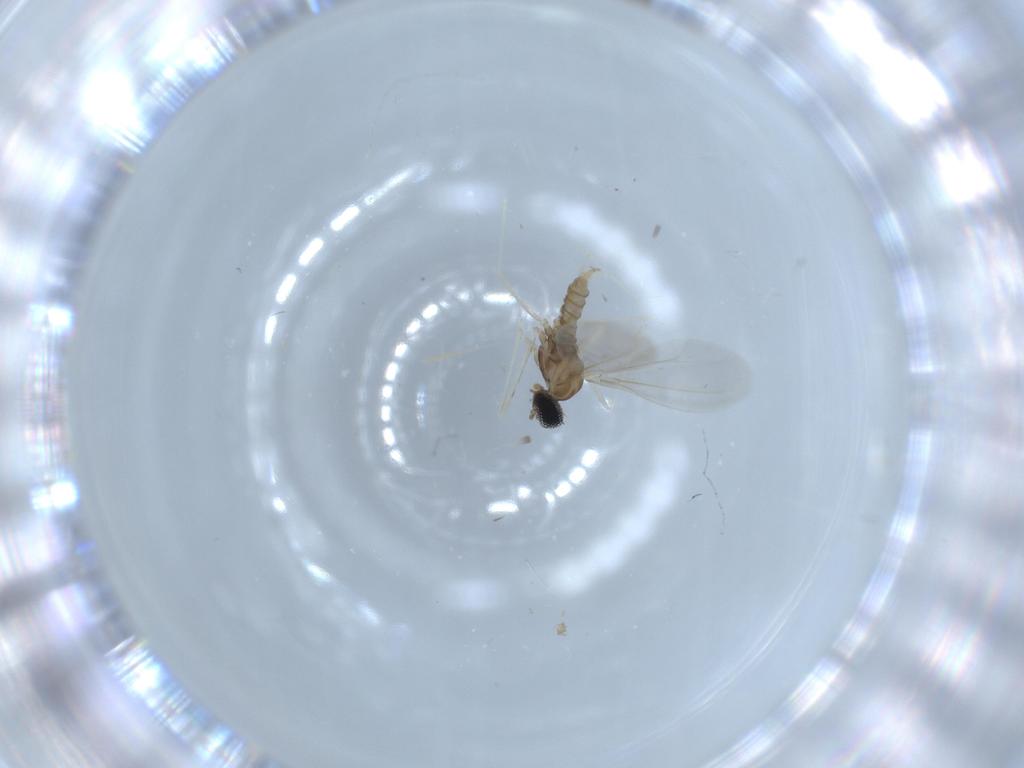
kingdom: Animalia
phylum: Arthropoda
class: Insecta
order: Diptera
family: Cecidomyiidae
